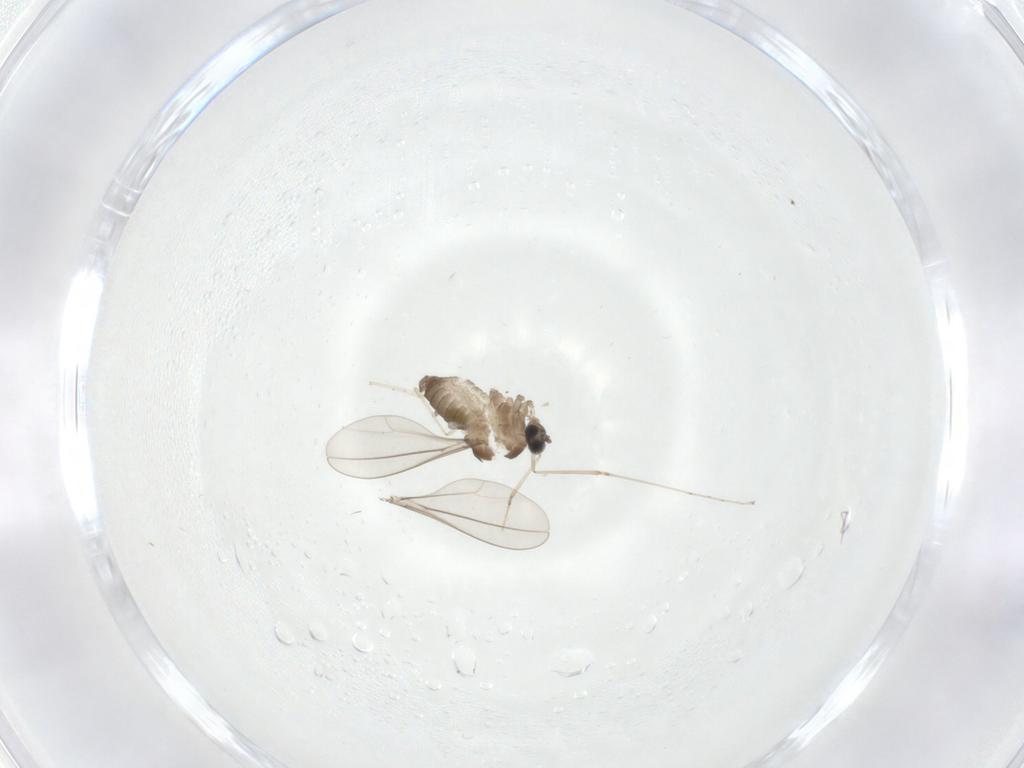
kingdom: Animalia
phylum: Arthropoda
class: Insecta
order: Diptera
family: Cecidomyiidae
